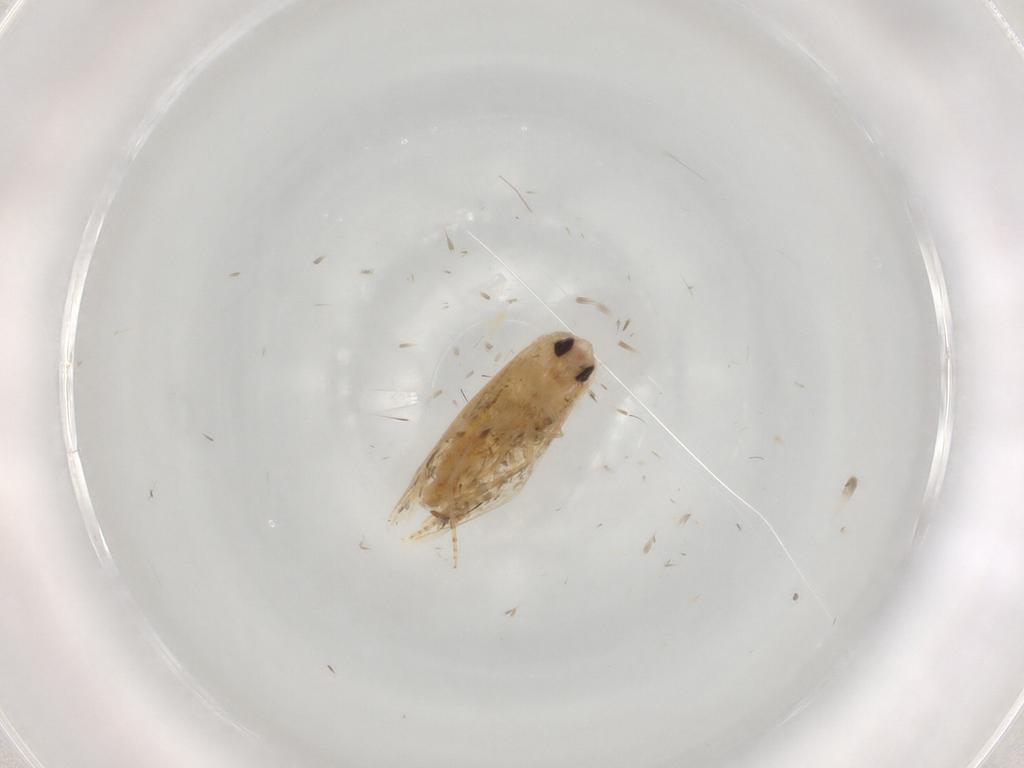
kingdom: Animalia
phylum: Arthropoda
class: Insecta
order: Lepidoptera
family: Bucculatricidae
